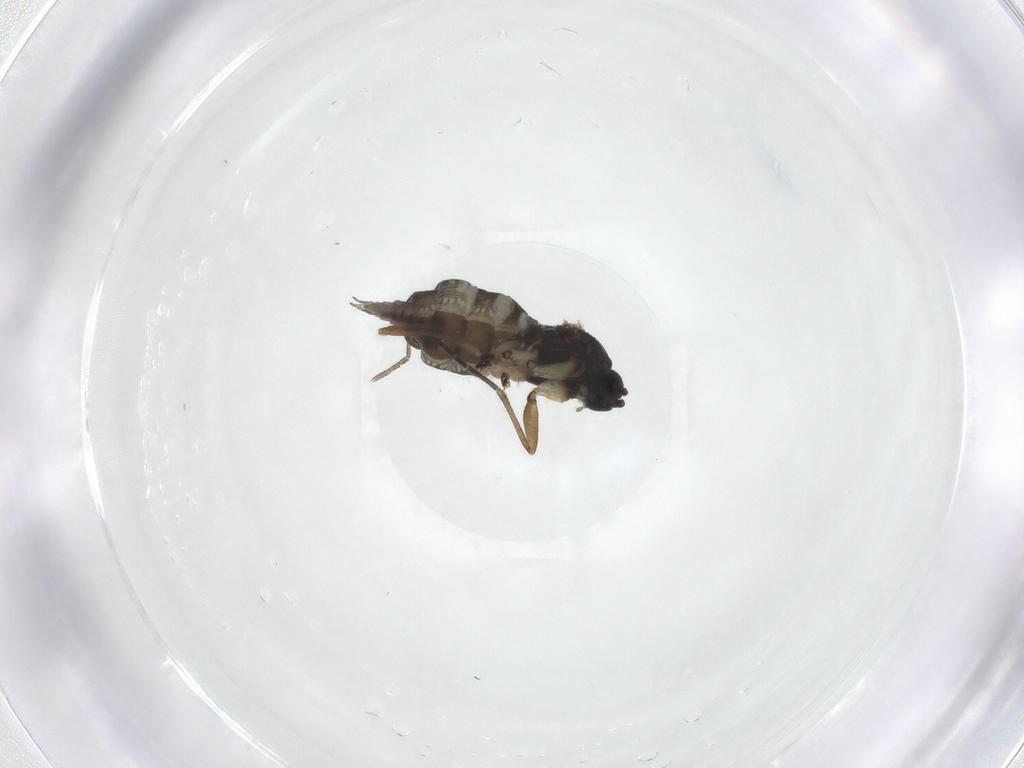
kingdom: Animalia
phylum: Arthropoda
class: Insecta
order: Diptera
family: Sciaridae
